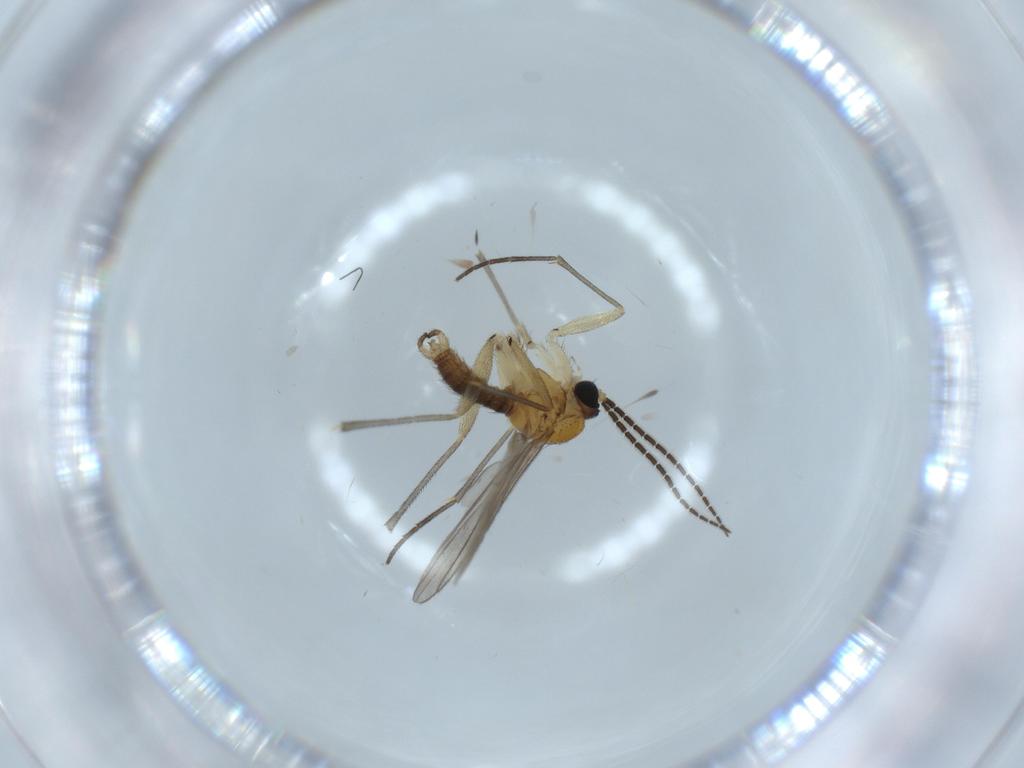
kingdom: Animalia
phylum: Arthropoda
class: Insecta
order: Diptera
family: Sciaridae
